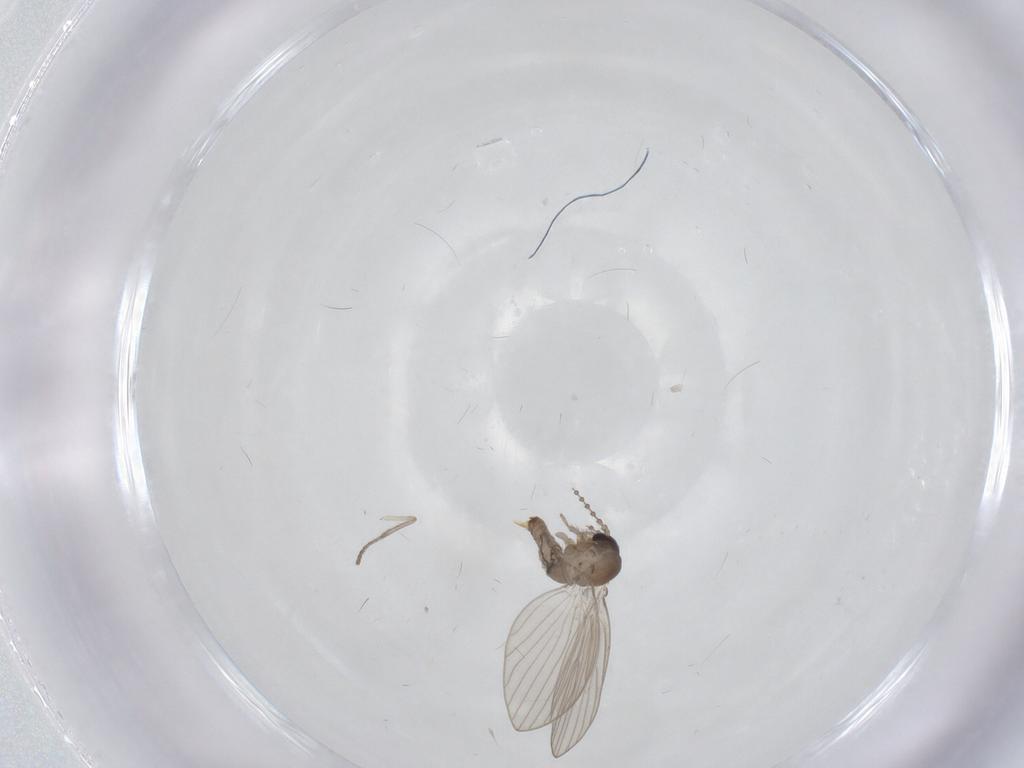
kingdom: Animalia
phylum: Arthropoda
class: Insecta
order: Diptera
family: Psychodidae
